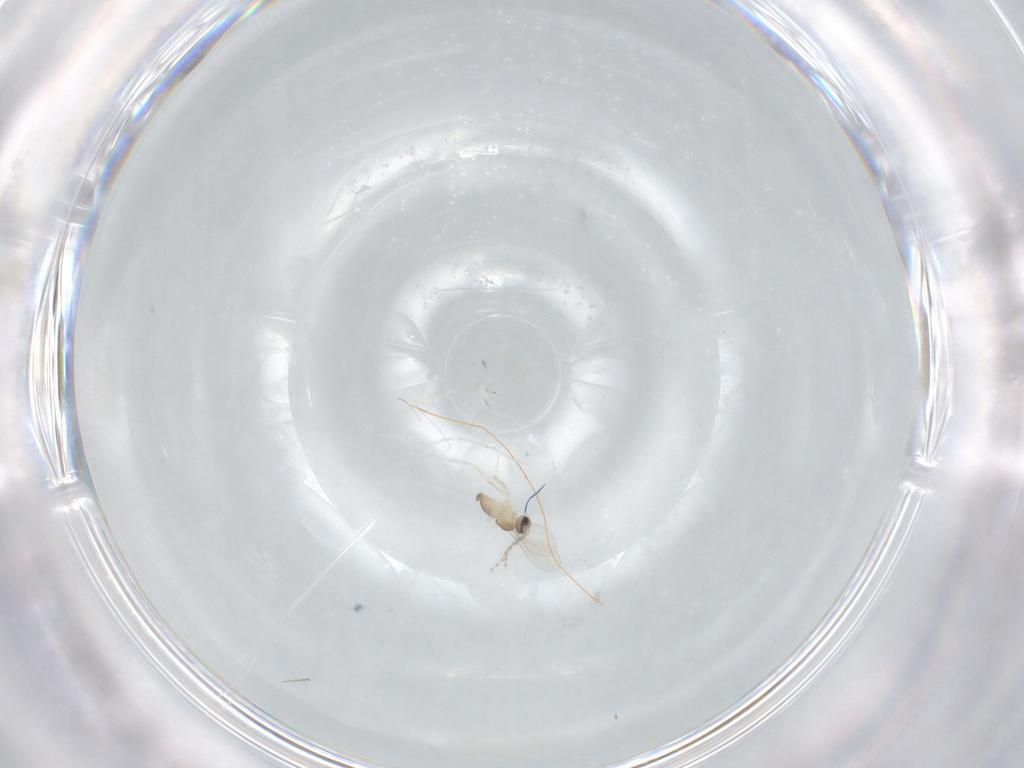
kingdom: Animalia
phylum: Arthropoda
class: Insecta
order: Diptera
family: Cecidomyiidae
